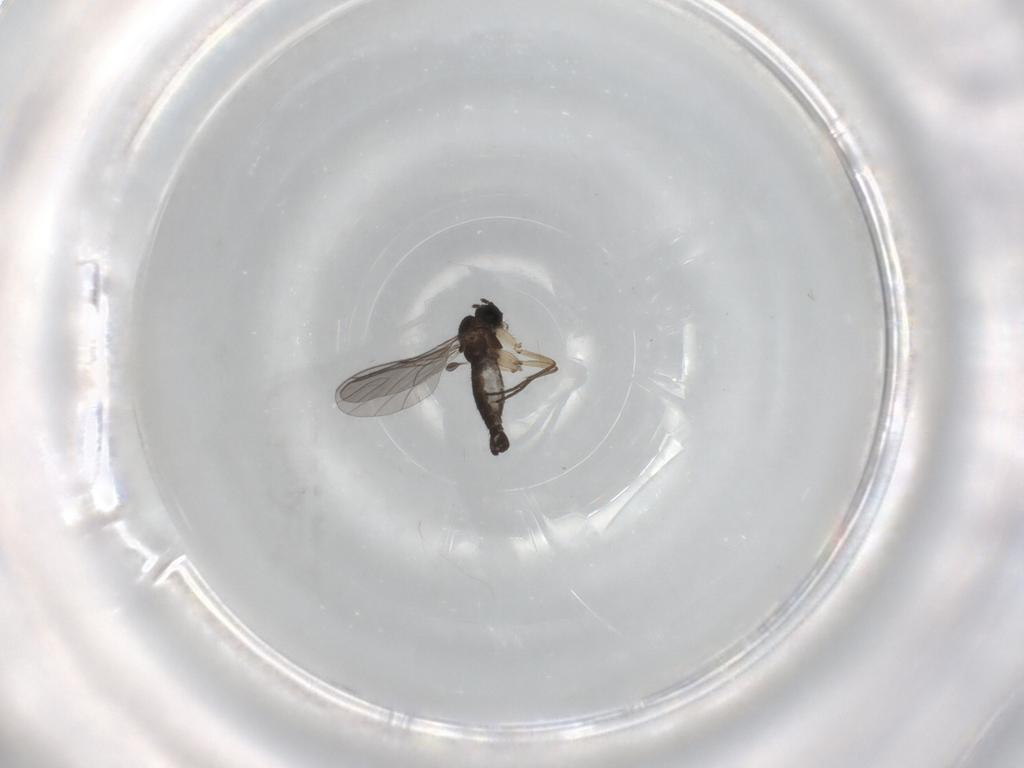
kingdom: Animalia
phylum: Arthropoda
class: Insecta
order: Diptera
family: Sciaridae
